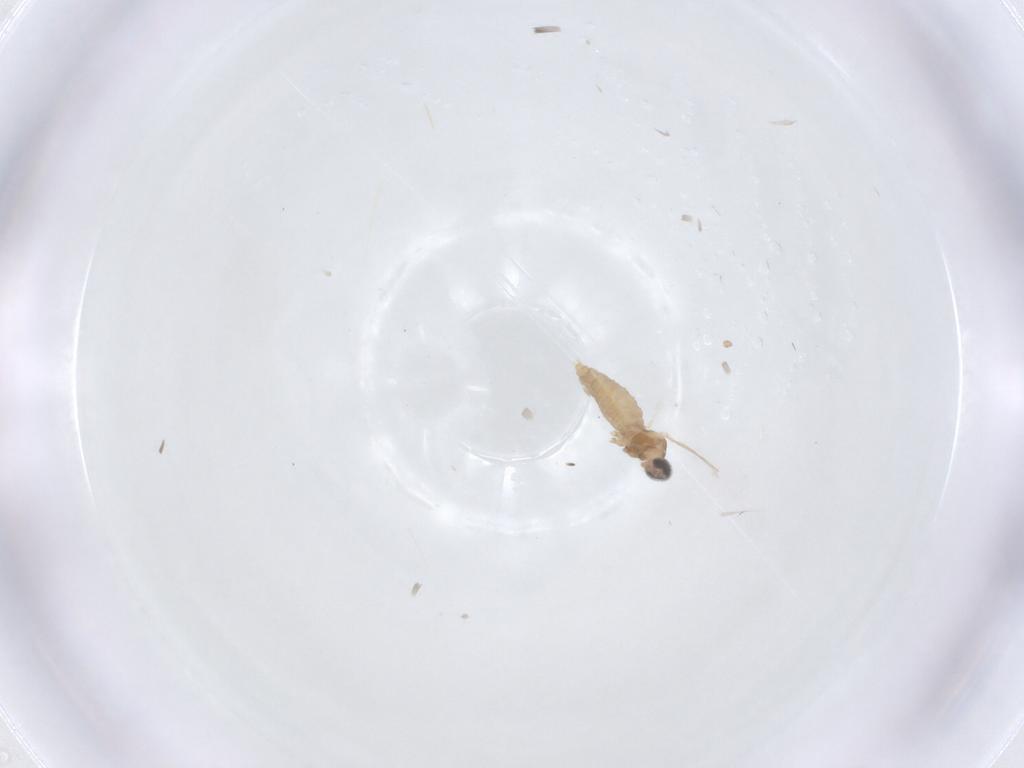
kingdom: Animalia
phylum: Arthropoda
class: Insecta
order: Diptera
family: Cecidomyiidae
